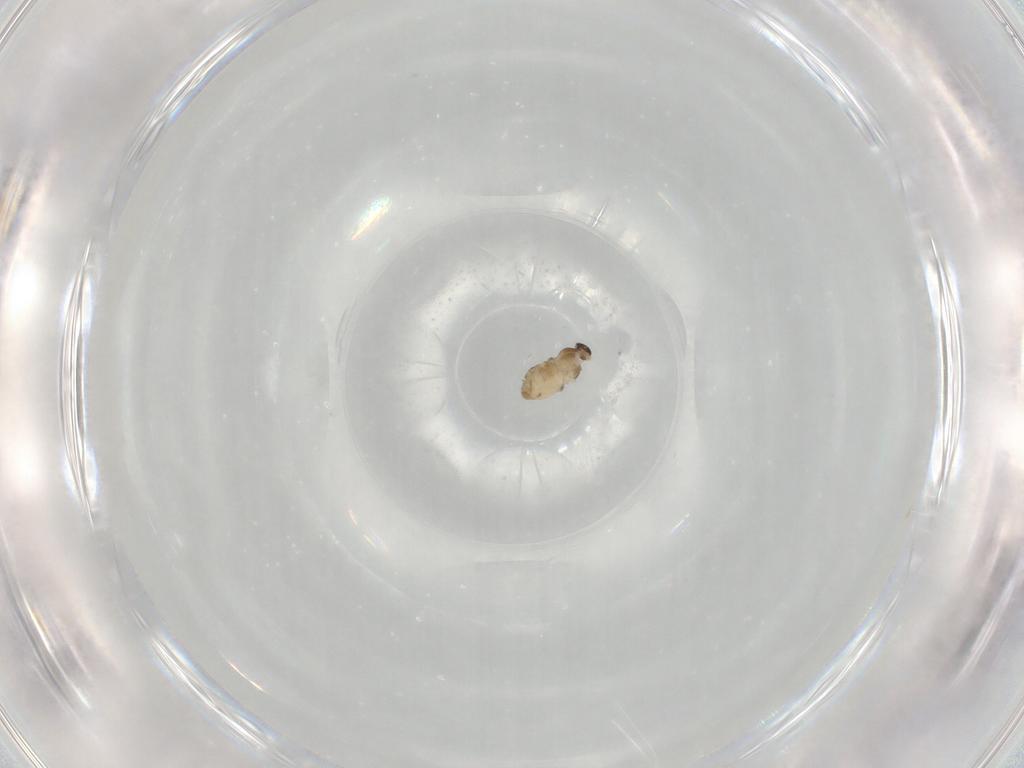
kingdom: Animalia
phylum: Arthropoda
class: Insecta
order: Diptera
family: Cecidomyiidae
